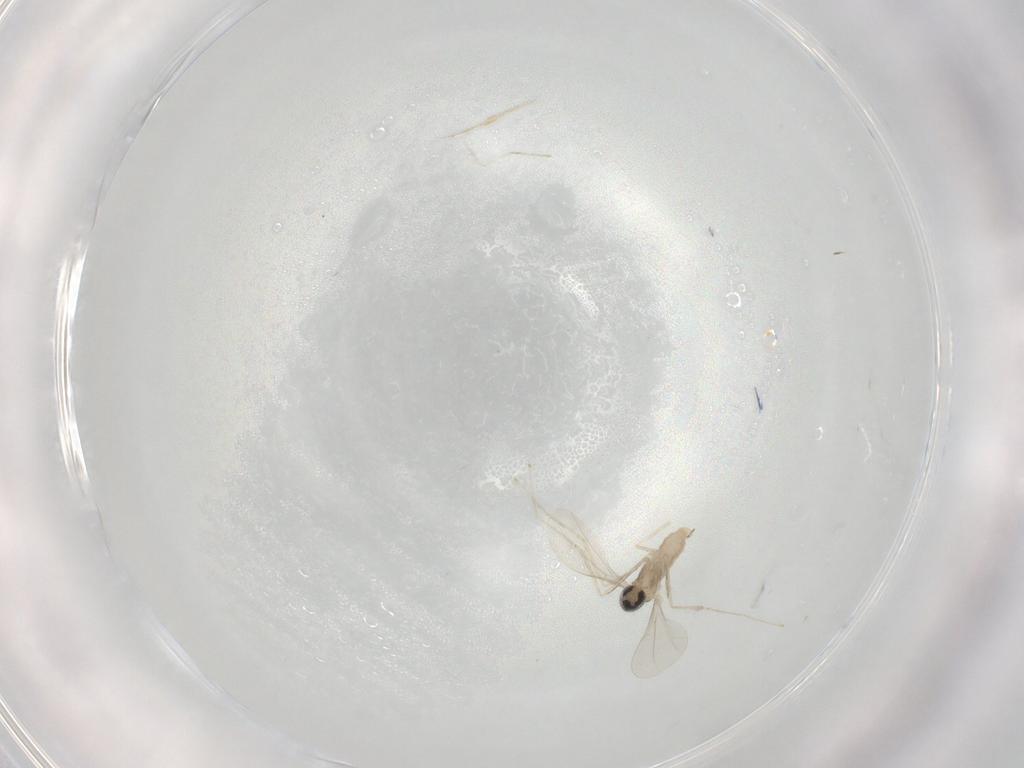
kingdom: Animalia
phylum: Arthropoda
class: Insecta
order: Diptera
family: Cecidomyiidae
